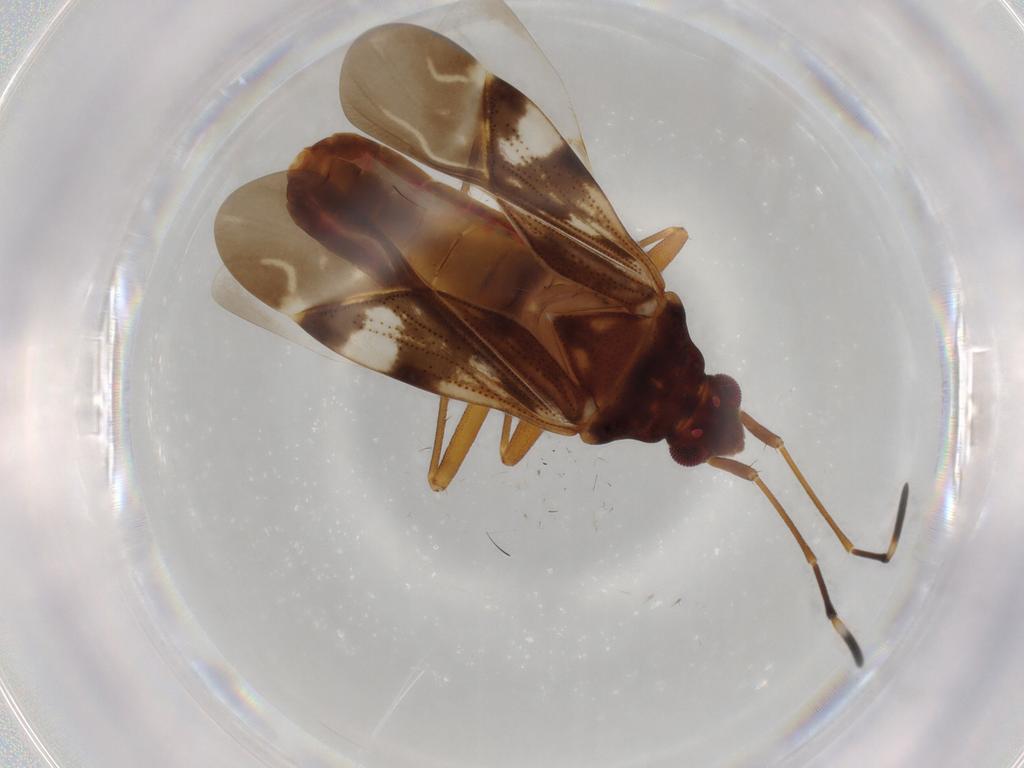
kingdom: Animalia
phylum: Arthropoda
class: Insecta
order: Hemiptera
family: Rhyparochromidae
